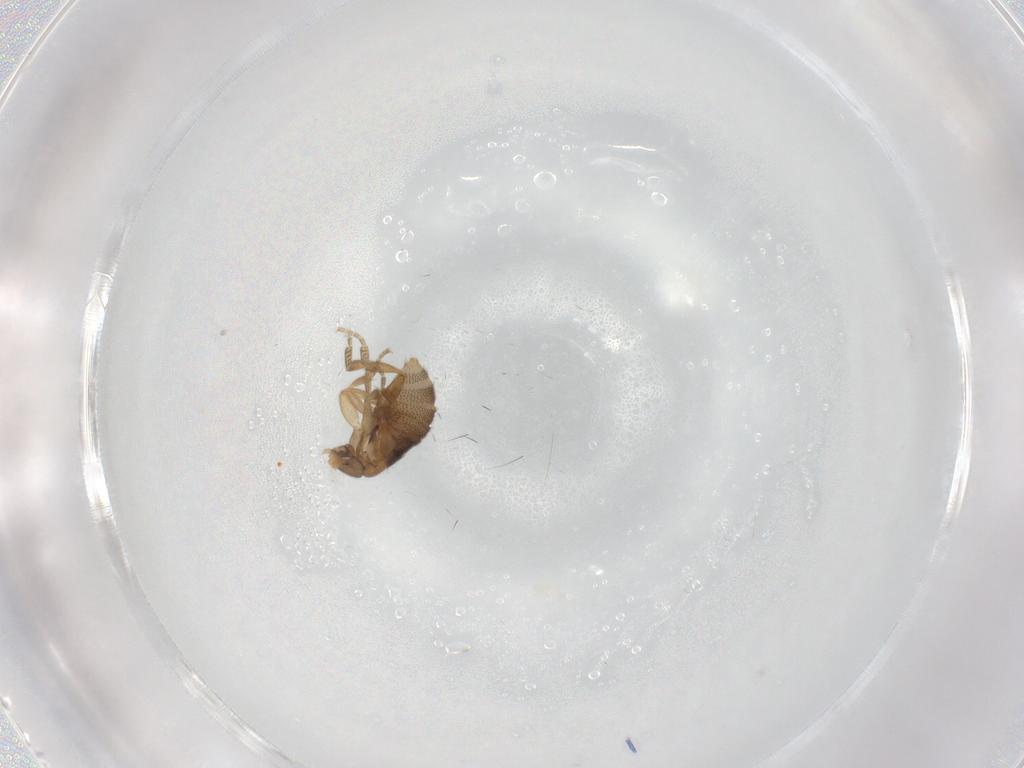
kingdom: Animalia
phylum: Arthropoda
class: Insecta
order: Diptera
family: Phoridae
